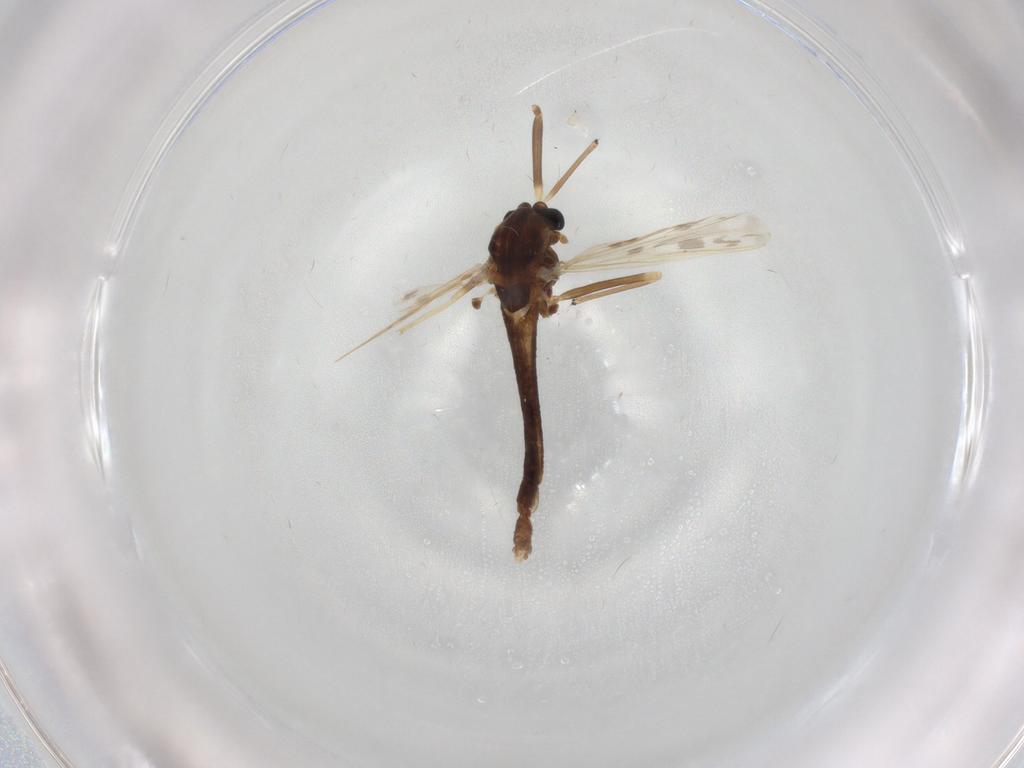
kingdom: Animalia
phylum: Arthropoda
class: Insecta
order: Diptera
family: Chironomidae
